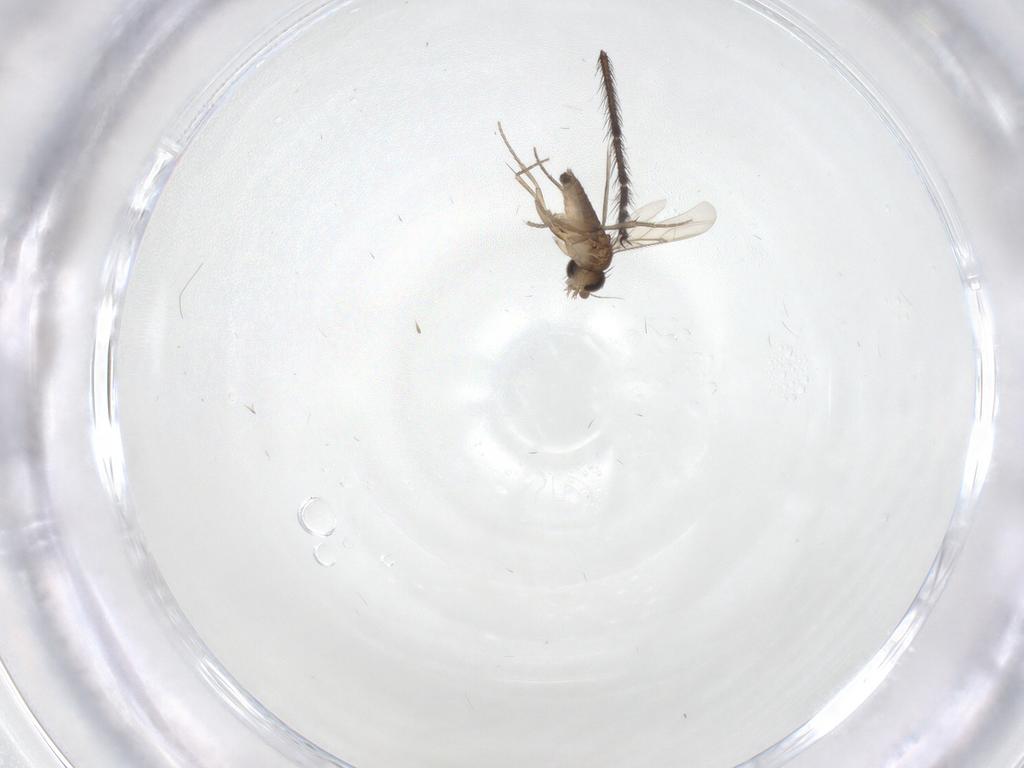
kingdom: Animalia
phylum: Arthropoda
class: Insecta
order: Diptera
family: Phoridae
